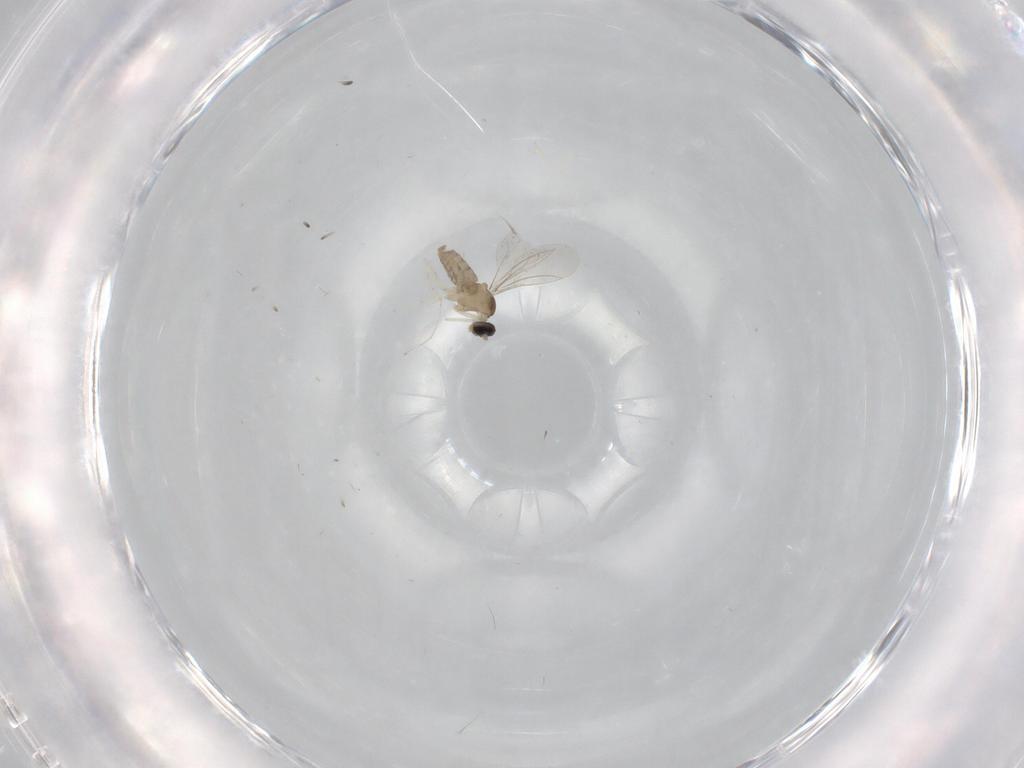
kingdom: Animalia
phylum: Arthropoda
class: Insecta
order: Diptera
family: Cecidomyiidae
